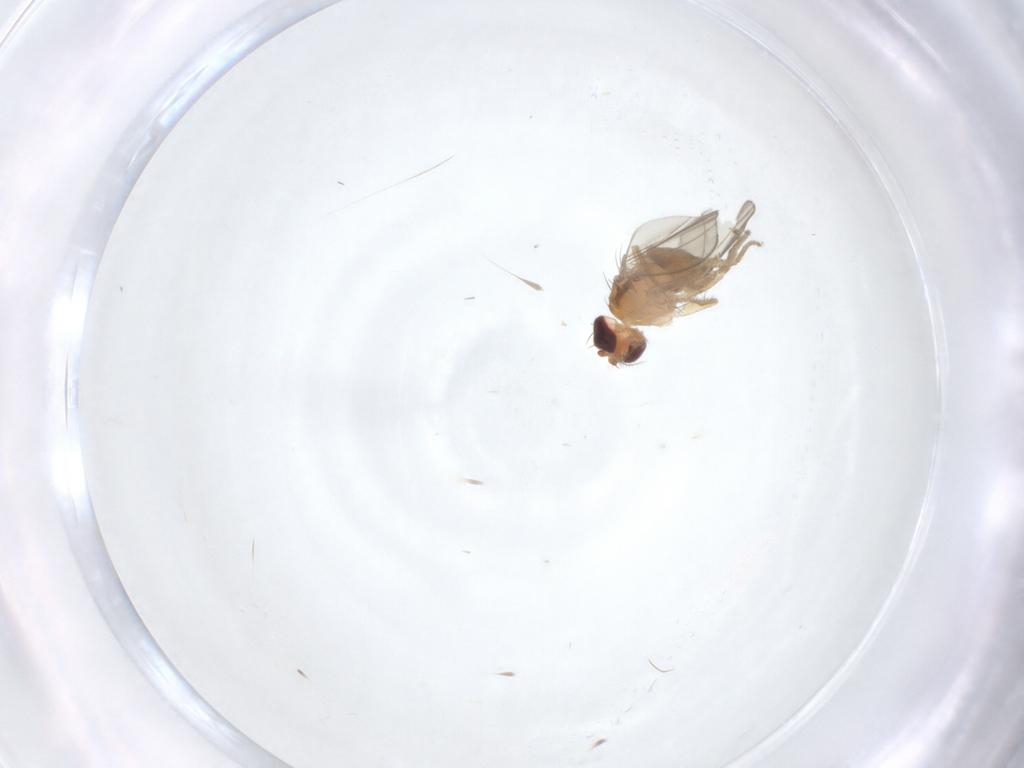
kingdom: Animalia
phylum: Arthropoda
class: Insecta
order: Diptera
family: Drosophilidae
